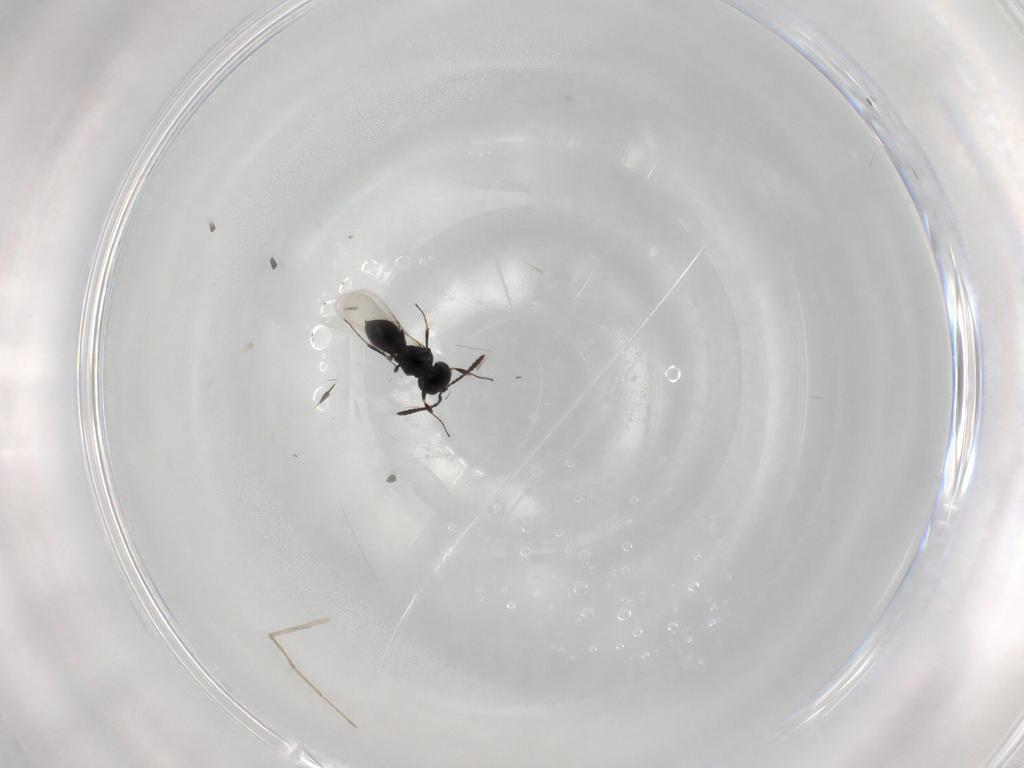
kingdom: Animalia
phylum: Arthropoda
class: Insecta
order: Hymenoptera
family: Scelionidae
